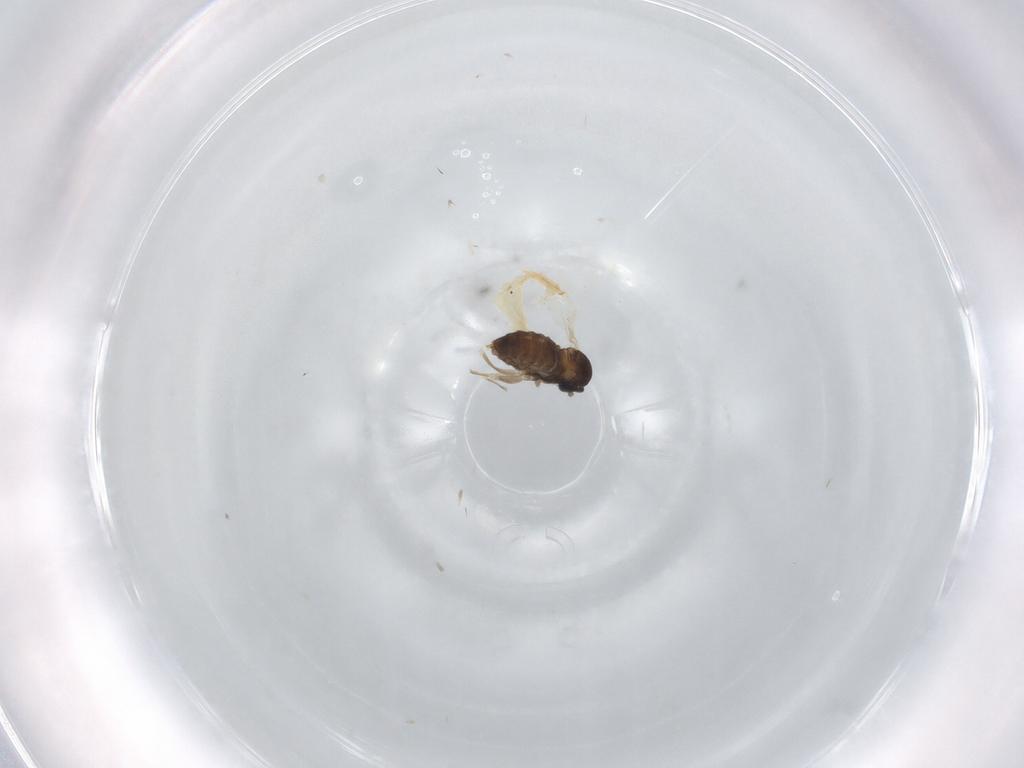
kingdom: Animalia
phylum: Arthropoda
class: Insecta
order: Diptera
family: Cecidomyiidae
